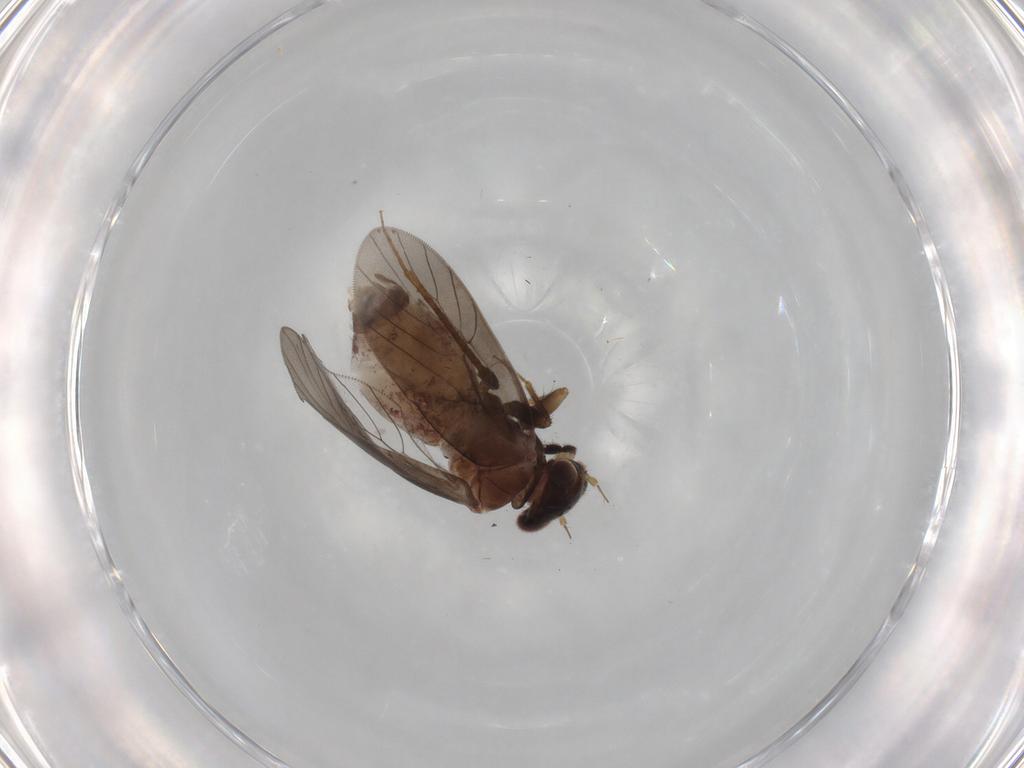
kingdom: Animalia
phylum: Arthropoda
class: Insecta
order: Psocodea
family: Lepidopsocidae
